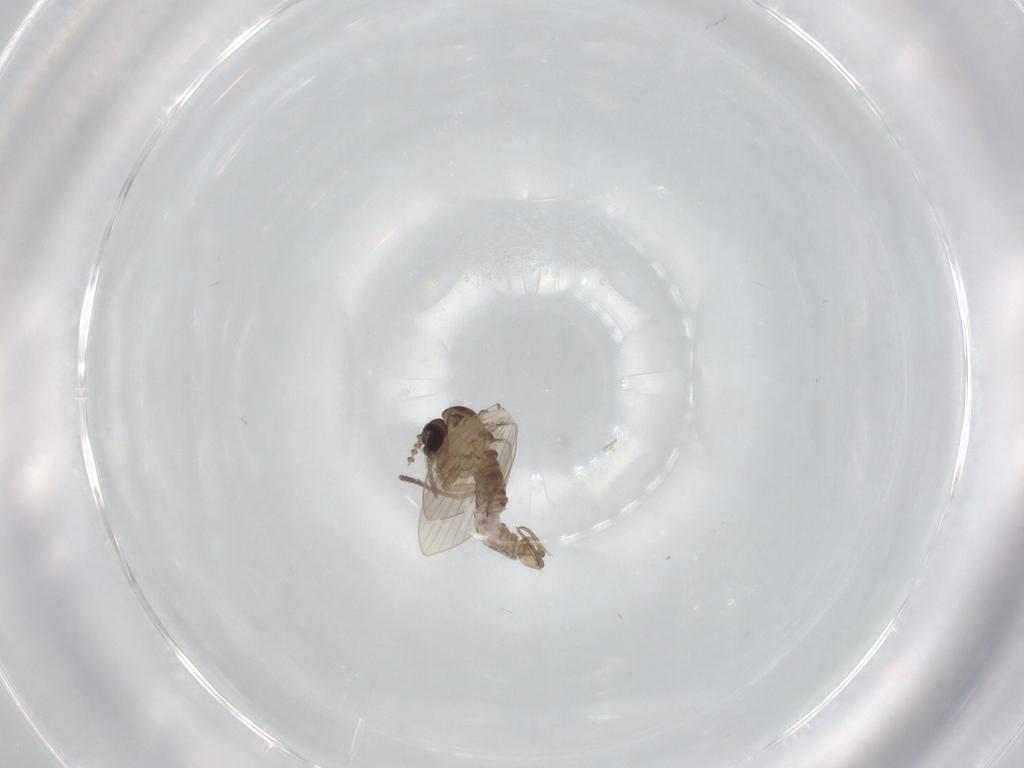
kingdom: Animalia
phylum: Arthropoda
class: Insecta
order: Diptera
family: Psychodidae
